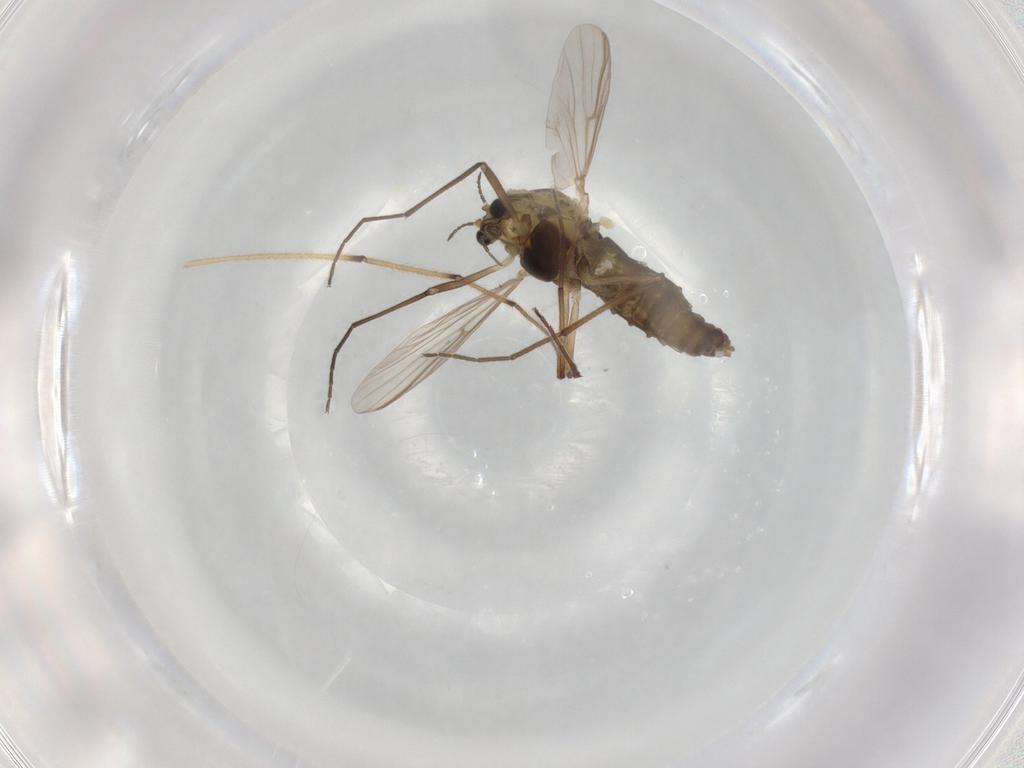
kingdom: Animalia
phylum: Arthropoda
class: Insecta
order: Diptera
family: Chironomidae
